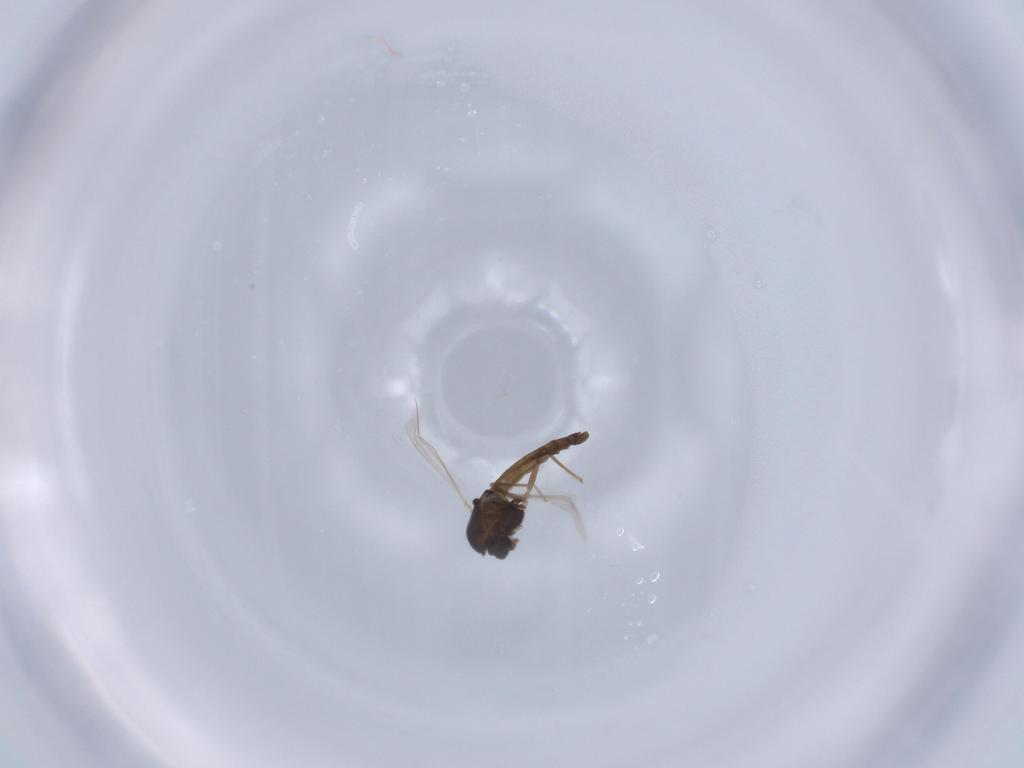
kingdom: Animalia
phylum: Arthropoda
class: Insecta
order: Diptera
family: Chironomidae
